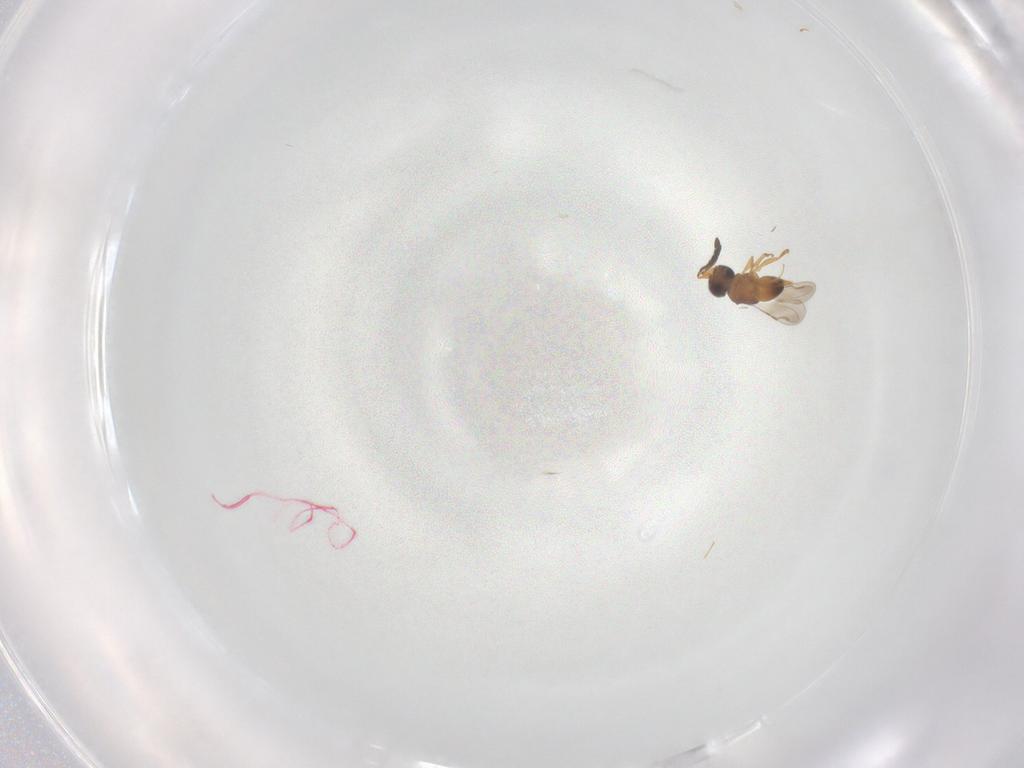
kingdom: Animalia
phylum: Arthropoda
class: Insecta
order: Hymenoptera
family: Ceraphronidae
